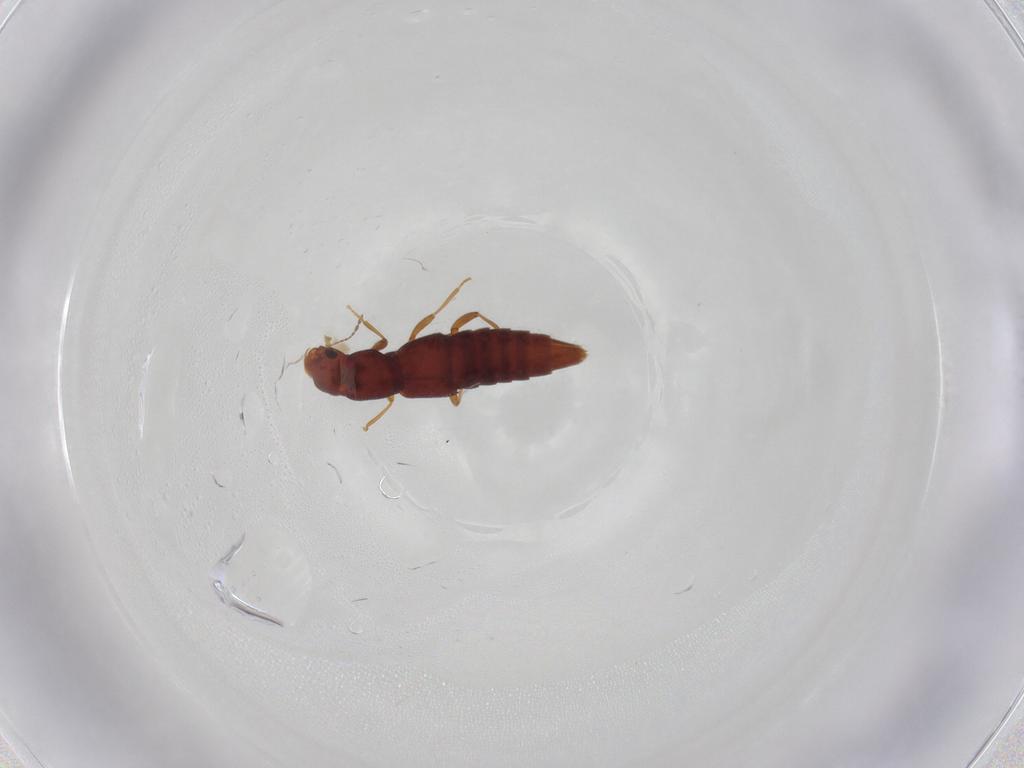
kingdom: Animalia
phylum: Arthropoda
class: Insecta
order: Coleoptera
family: Staphylinidae
